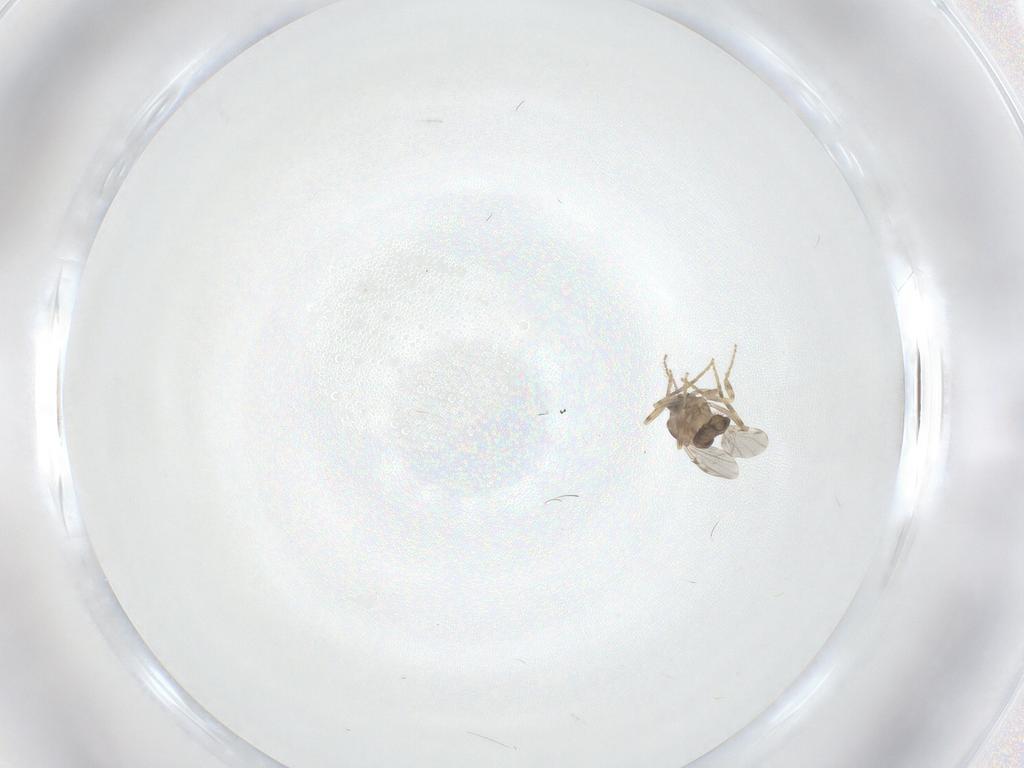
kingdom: Animalia
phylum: Arthropoda
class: Insecta
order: Diptera
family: Ceratopogonidae
